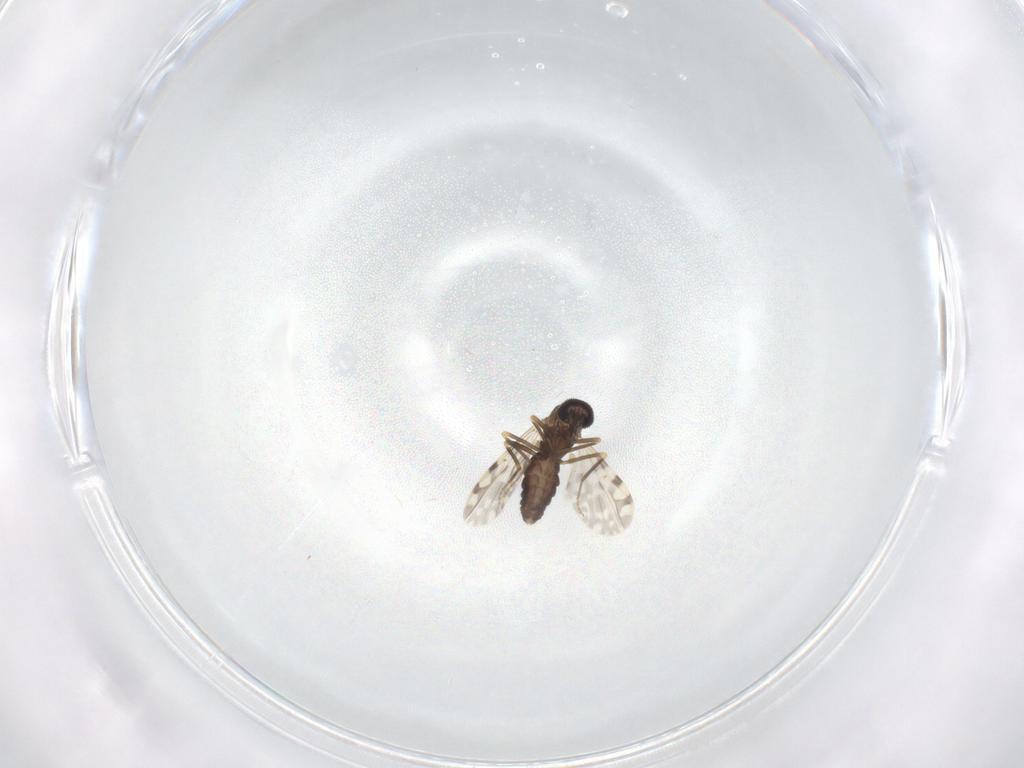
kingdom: Animalia
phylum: Arthropoda
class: Insecta
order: Diptera
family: Ceratopogonidae
